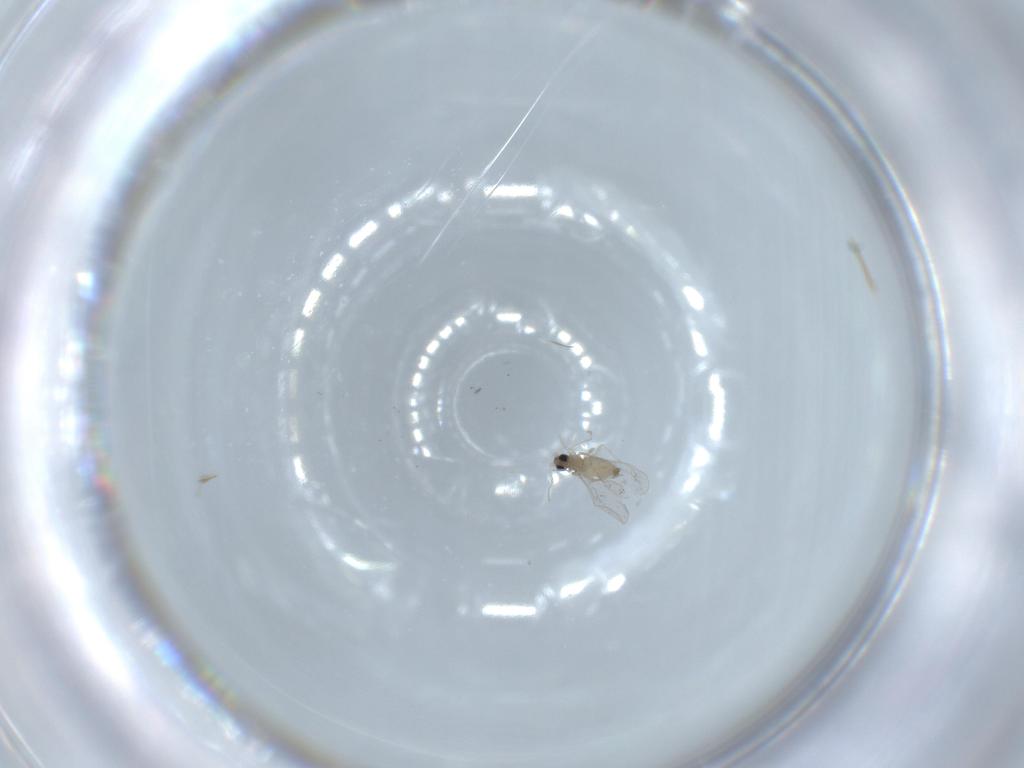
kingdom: Animalia
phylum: Arthropoda
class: Insecta
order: Diptera
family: Cecidomyiidae
